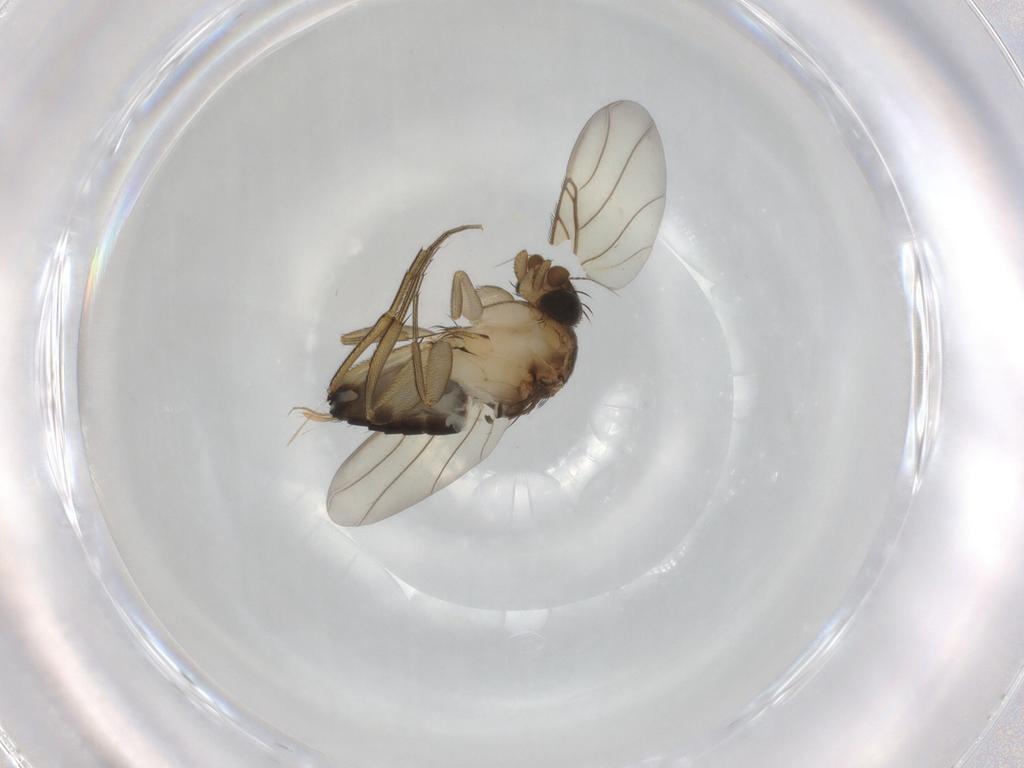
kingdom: Animalia
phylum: Arthropoda
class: Insecta
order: Diptera
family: Phoridae
